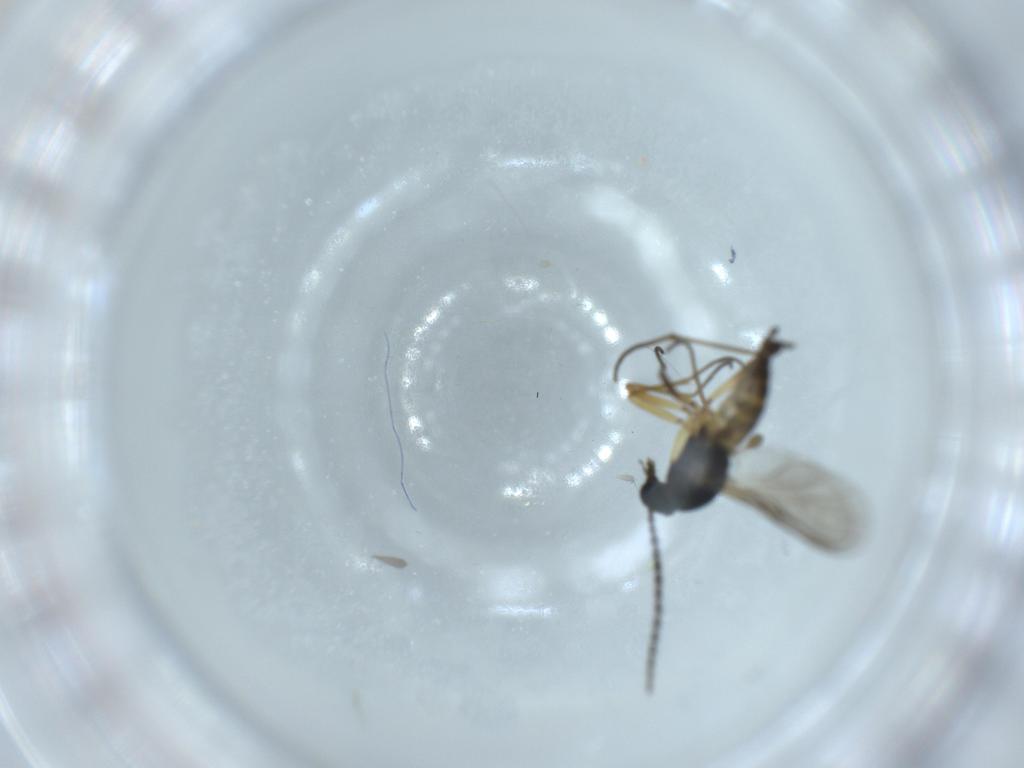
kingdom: Animalia
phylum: Arthropoda
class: Insecta
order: Diptera
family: Sciaridae
